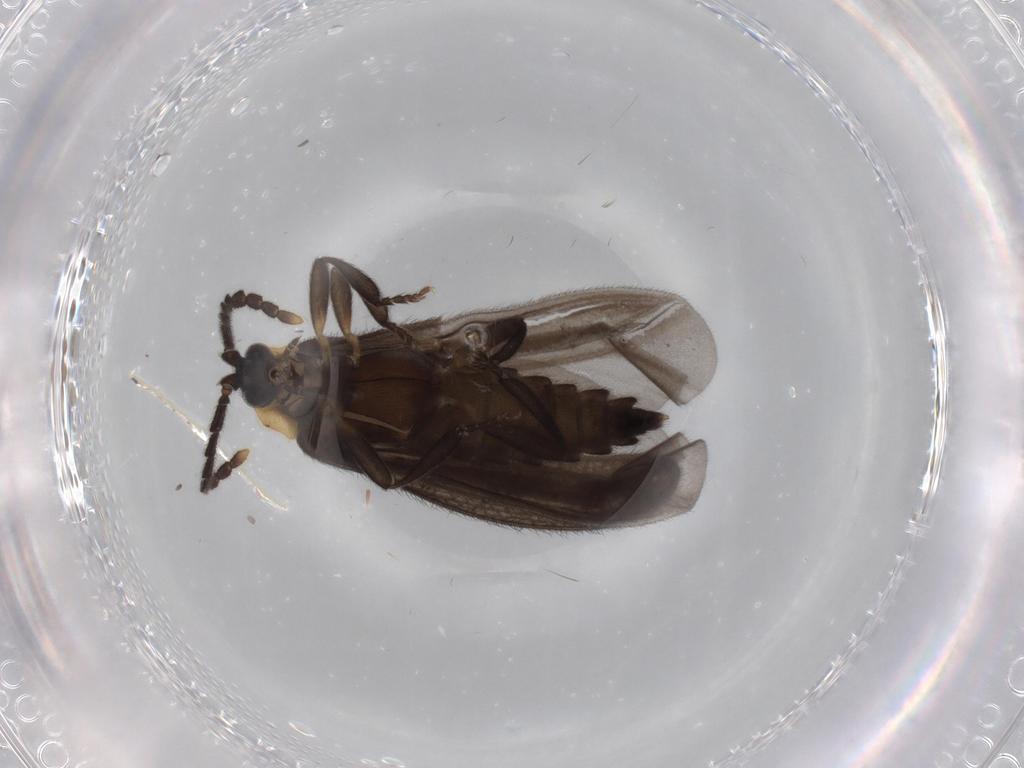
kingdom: Animalia
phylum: Arthropoda
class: Insecta
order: Coleoptera
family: Lycidae
